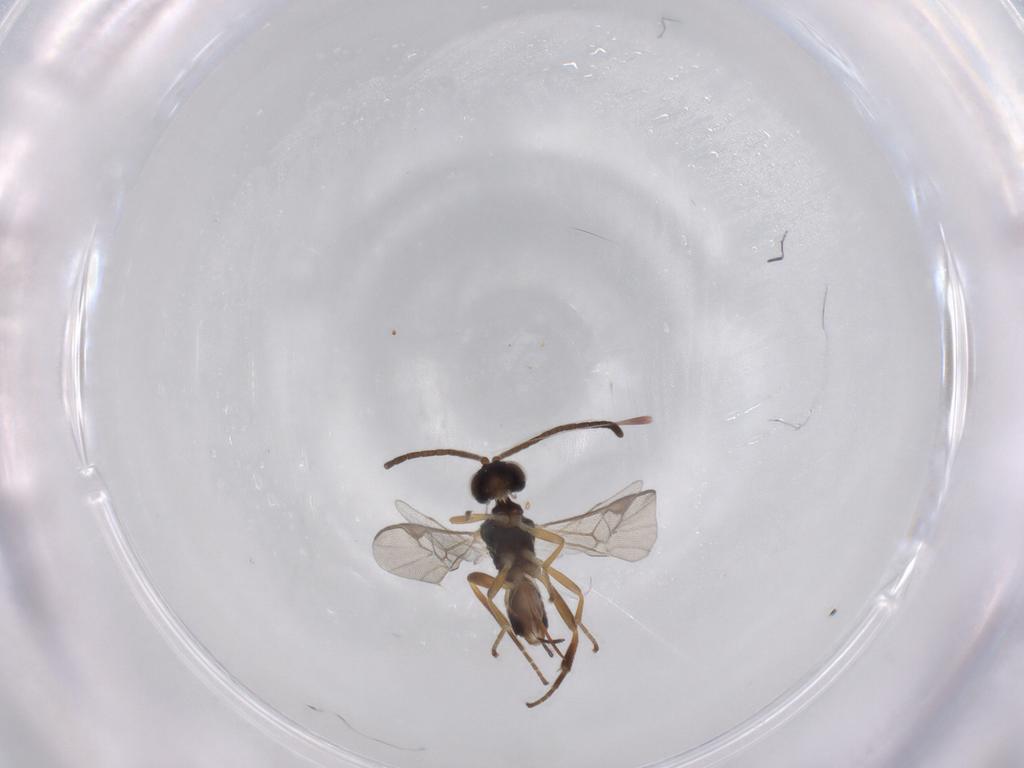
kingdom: Animalia
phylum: Arthropoda
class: Insecta
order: Hymenoptera
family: Braconidae
